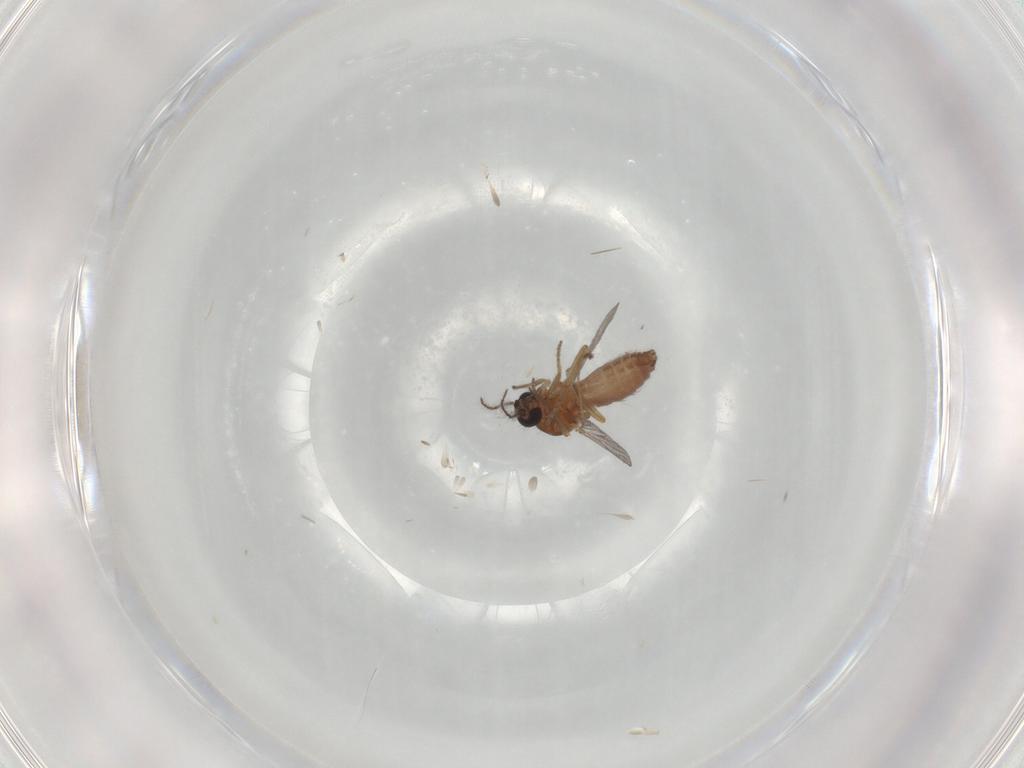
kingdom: Animalia
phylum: Arthropoda
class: Insecta
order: Diptera
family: Ceratopogonidae
